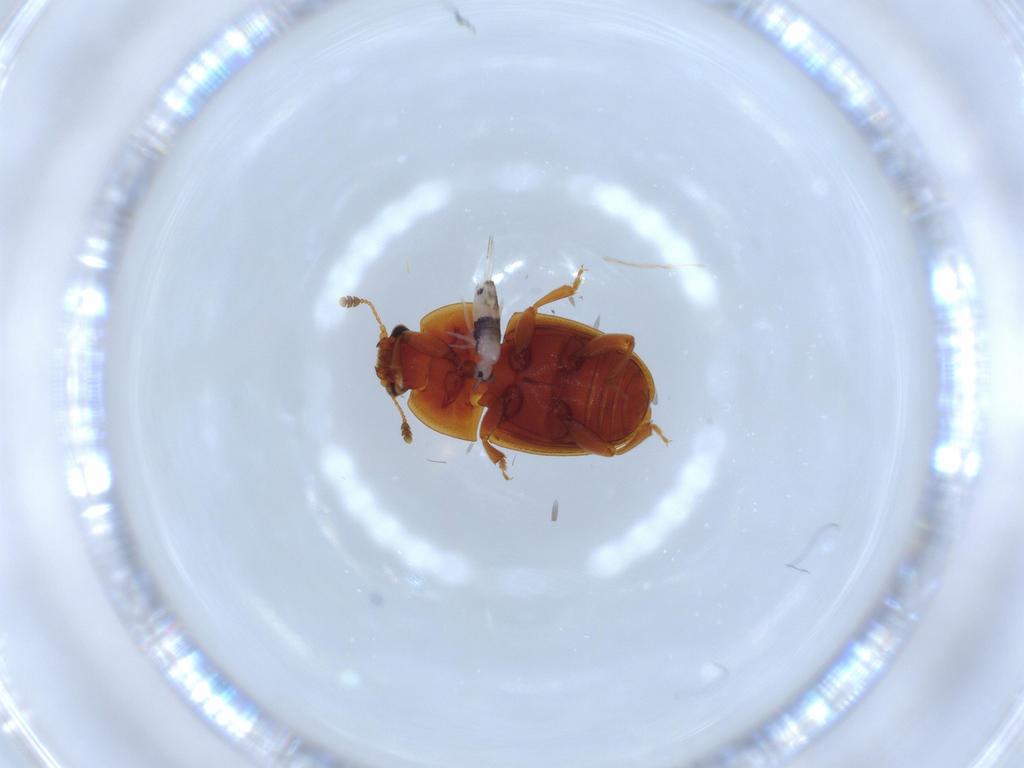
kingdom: Animalia
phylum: Arthropoda
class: Collembola
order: Entomobryomorpha
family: Entomobryidae
